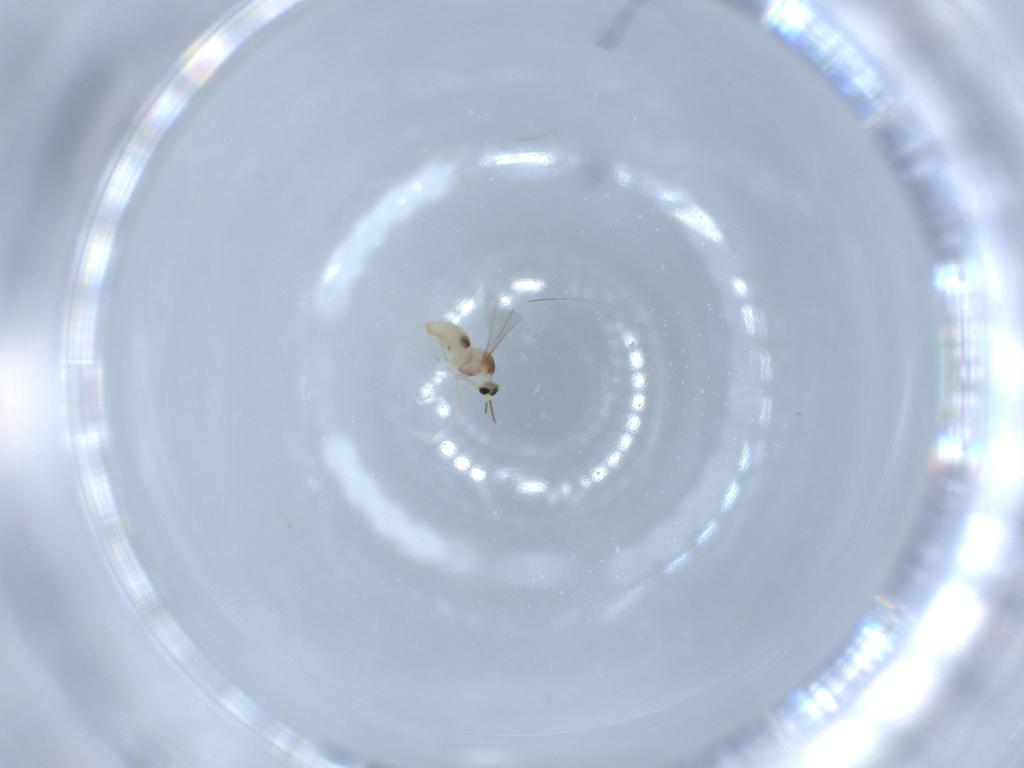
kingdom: Animalia
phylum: Arthropoda
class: Insecta
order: Diptera
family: Cecidomyiidae
